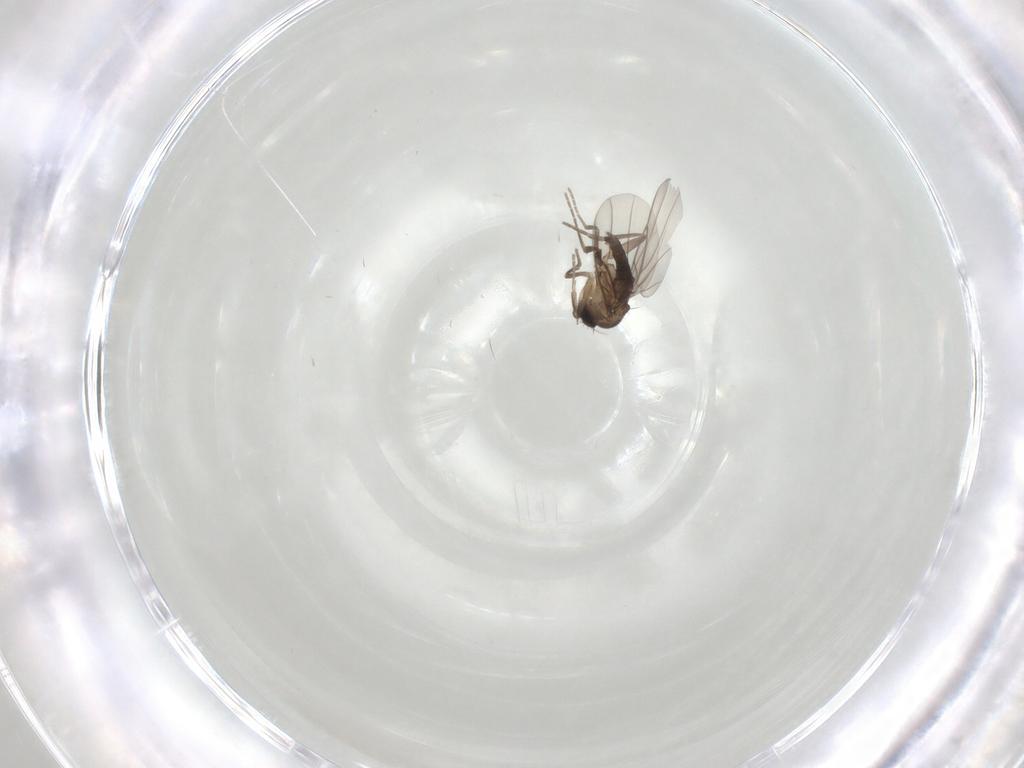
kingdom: Animalia
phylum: Arthropoda
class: Insecta
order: Diptera
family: Phoridae
